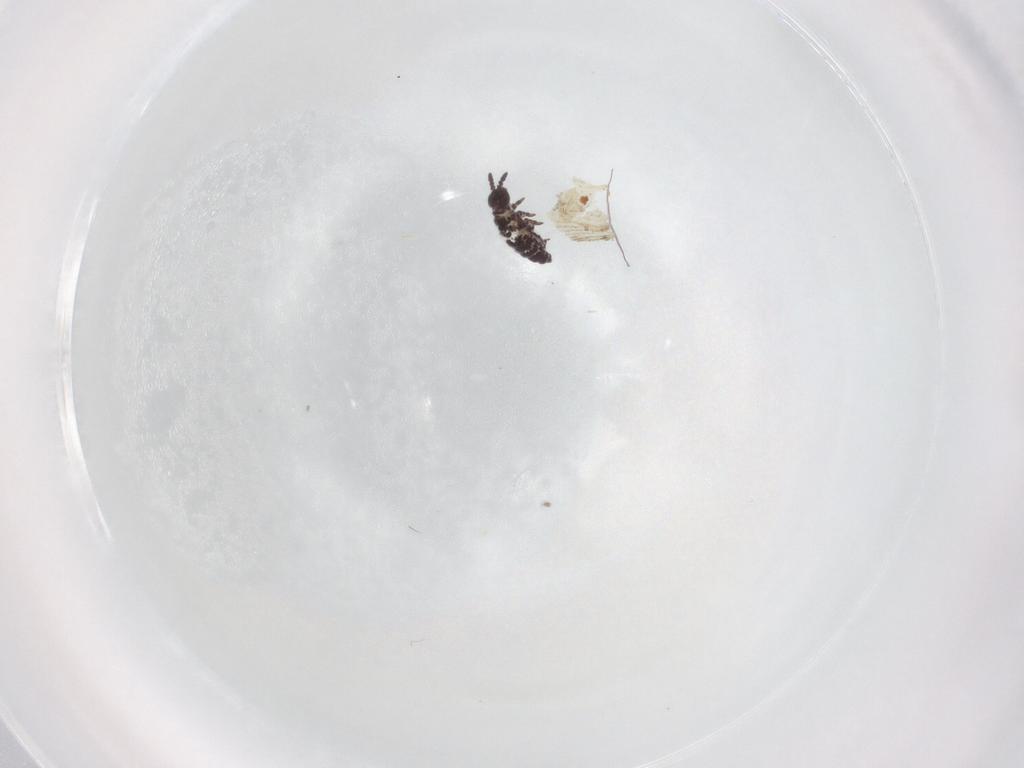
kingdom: Animalia
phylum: Arthropoda
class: Collembola
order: Poduromorpha
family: Hypogastruridae
